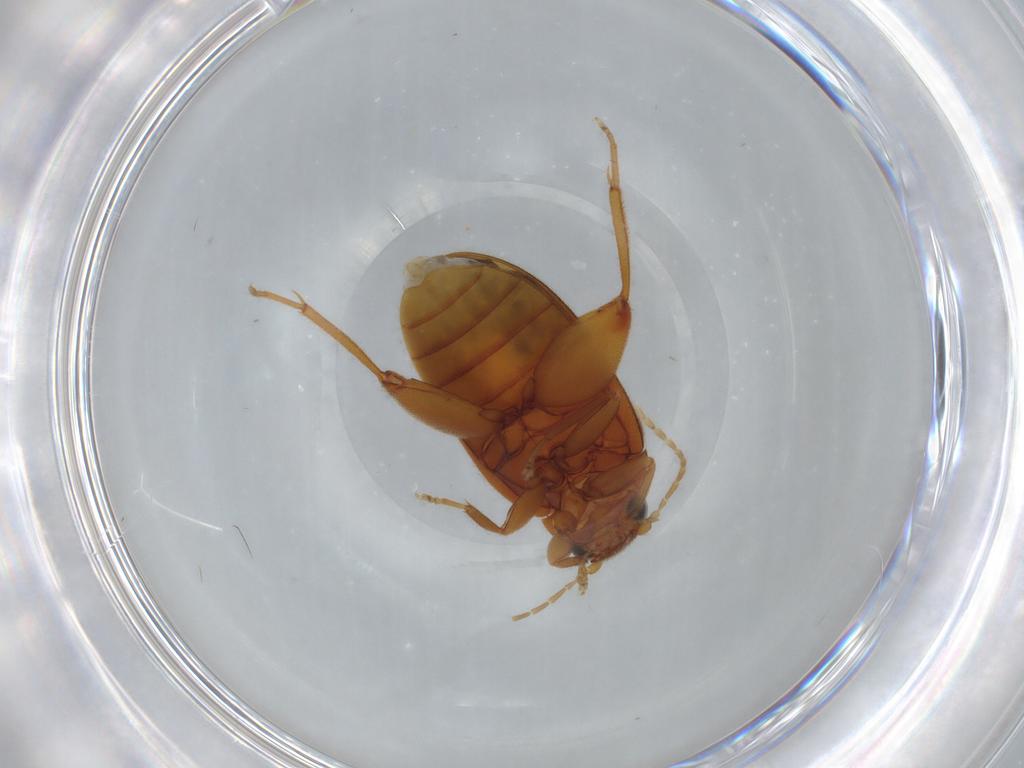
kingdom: Animalia
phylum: Arthropoda
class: Insecta
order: Coleoptera
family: Scirtidae
